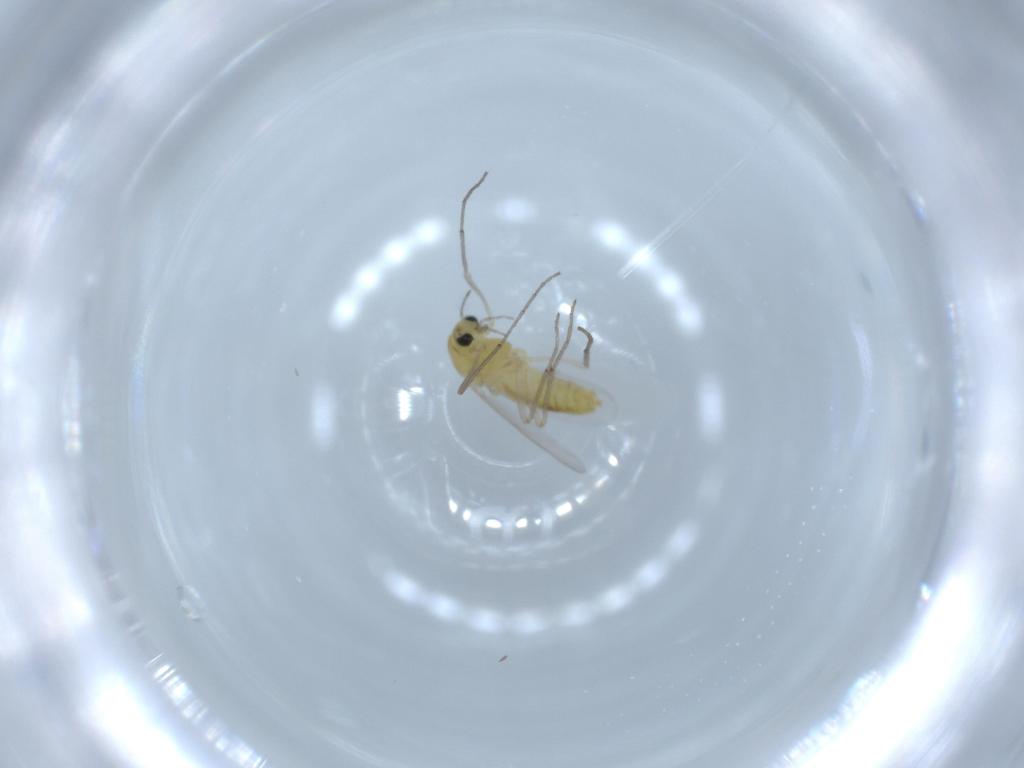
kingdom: Animalia
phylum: Arthropoda
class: Insecta
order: Diptera
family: Chironomidae
